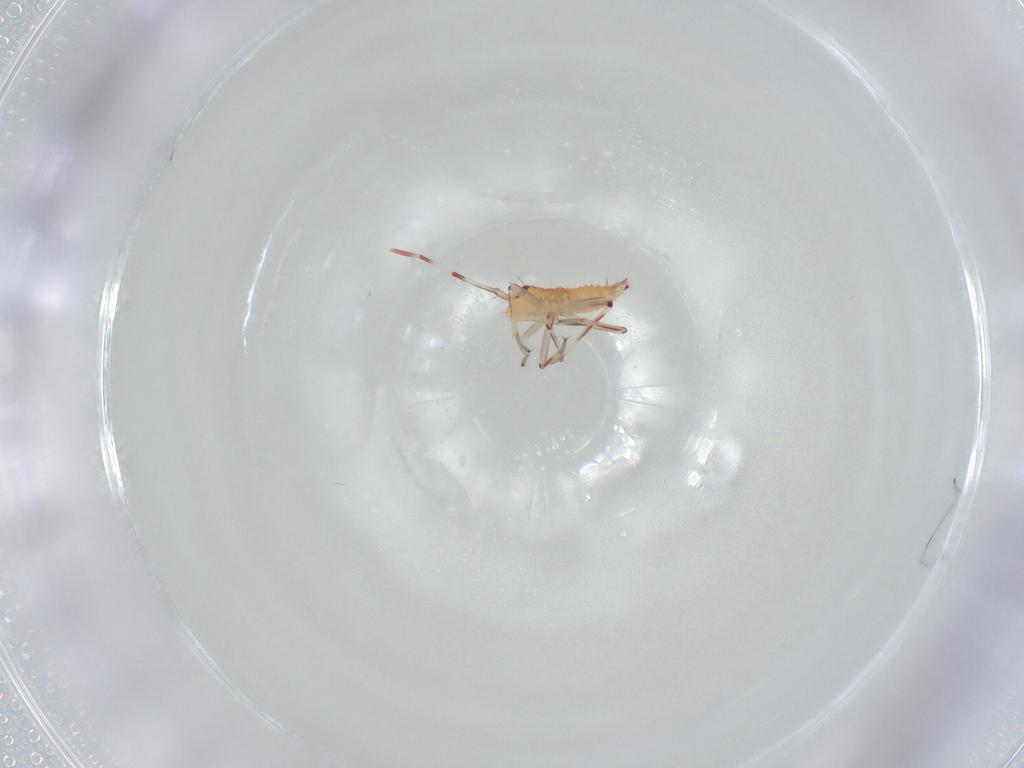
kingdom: Animalia
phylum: Arthropoda
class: Insecta
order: Hemiptera
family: Miridae
